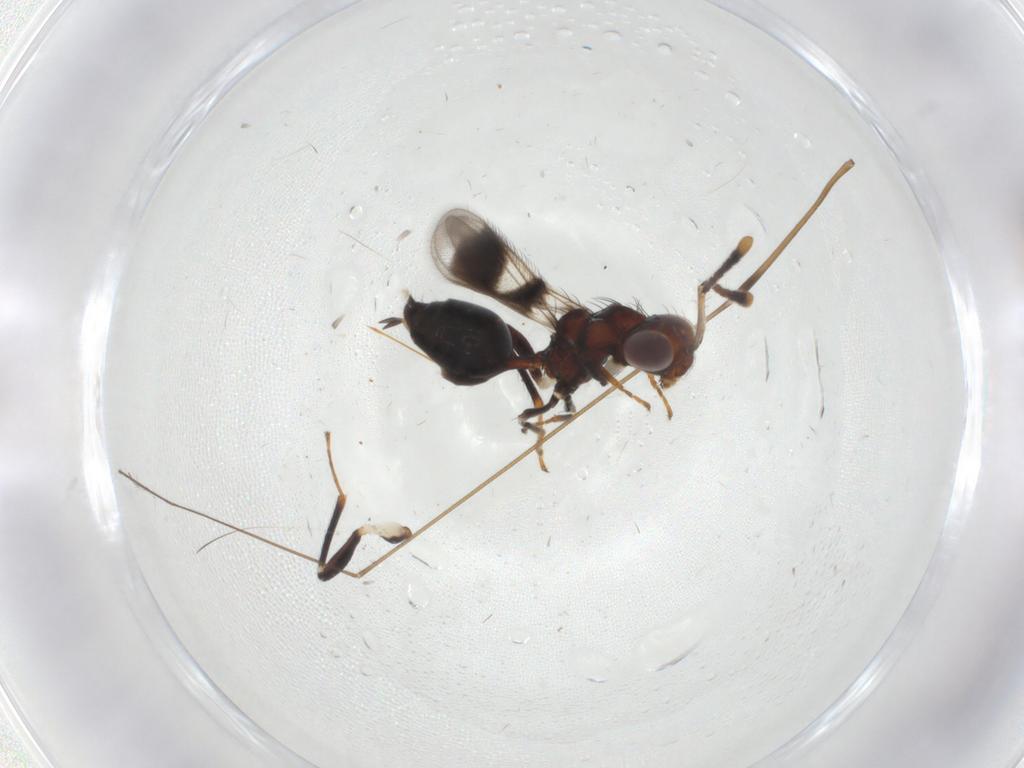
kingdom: Animalia
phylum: Arthropoda
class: Insecta
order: Hymenoptera
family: Eulophidae
